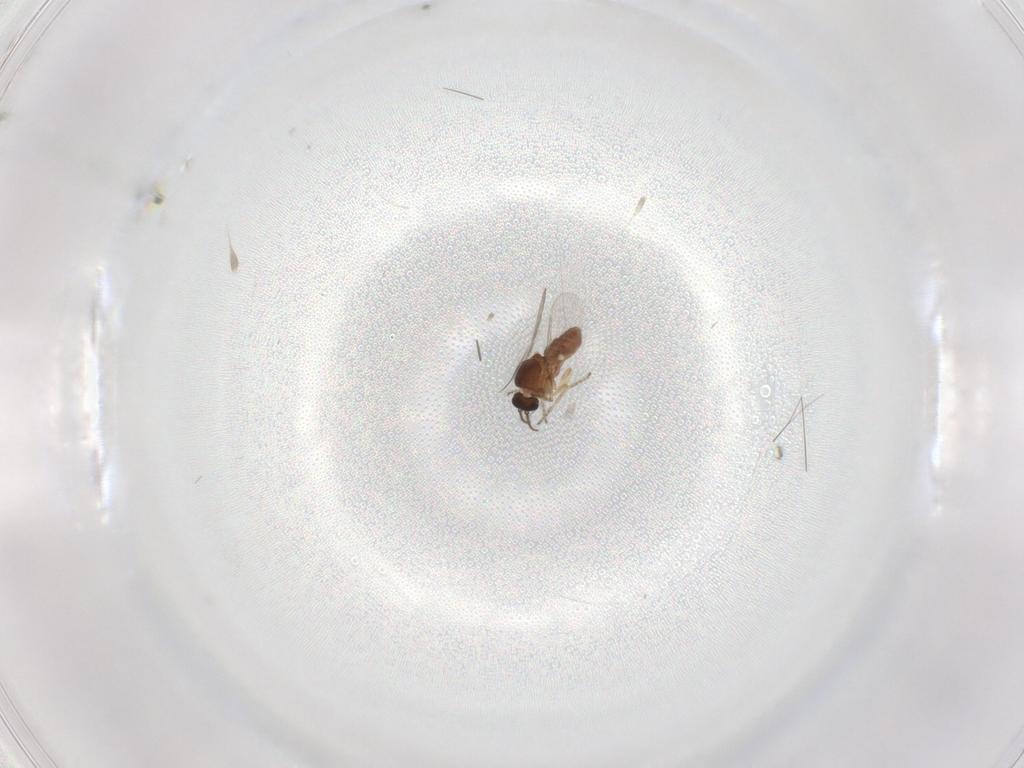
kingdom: Animalia
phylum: Arthropoda
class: Insecta
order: Diptera
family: Ceratopogonidae
